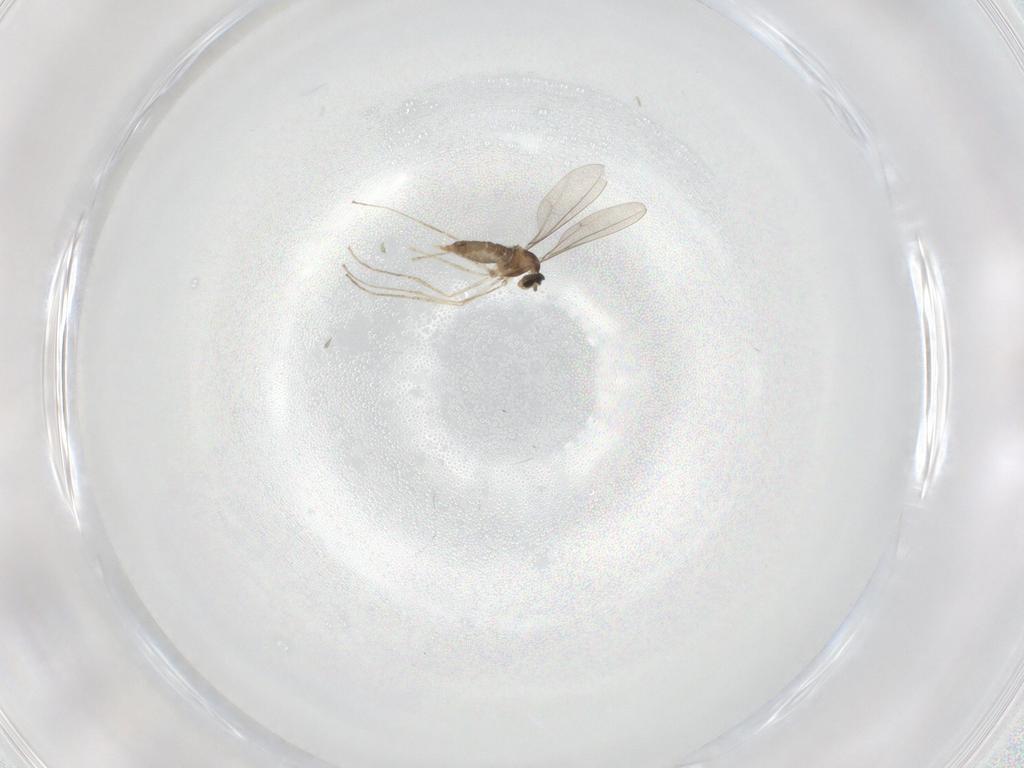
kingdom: Animalia
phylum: Arthropoda
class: Insecta
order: Diptera
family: Cecidomyiidae
